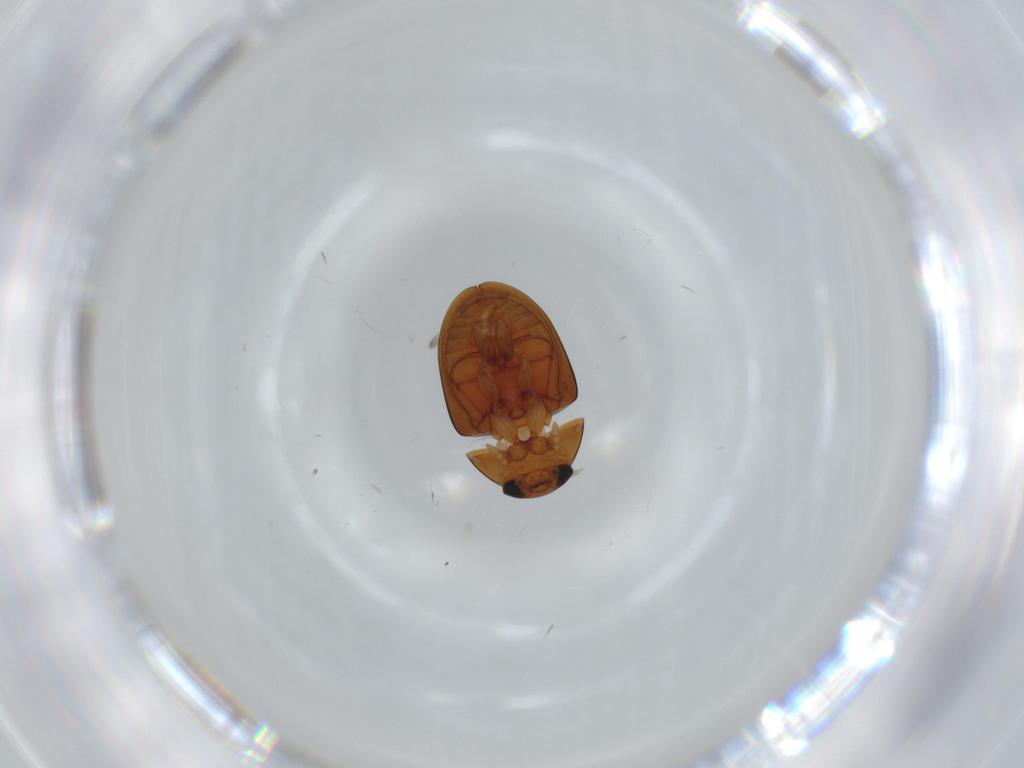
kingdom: Animalia
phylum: Arthropoda
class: Insecta
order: Coleoptera
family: Phalacridae
